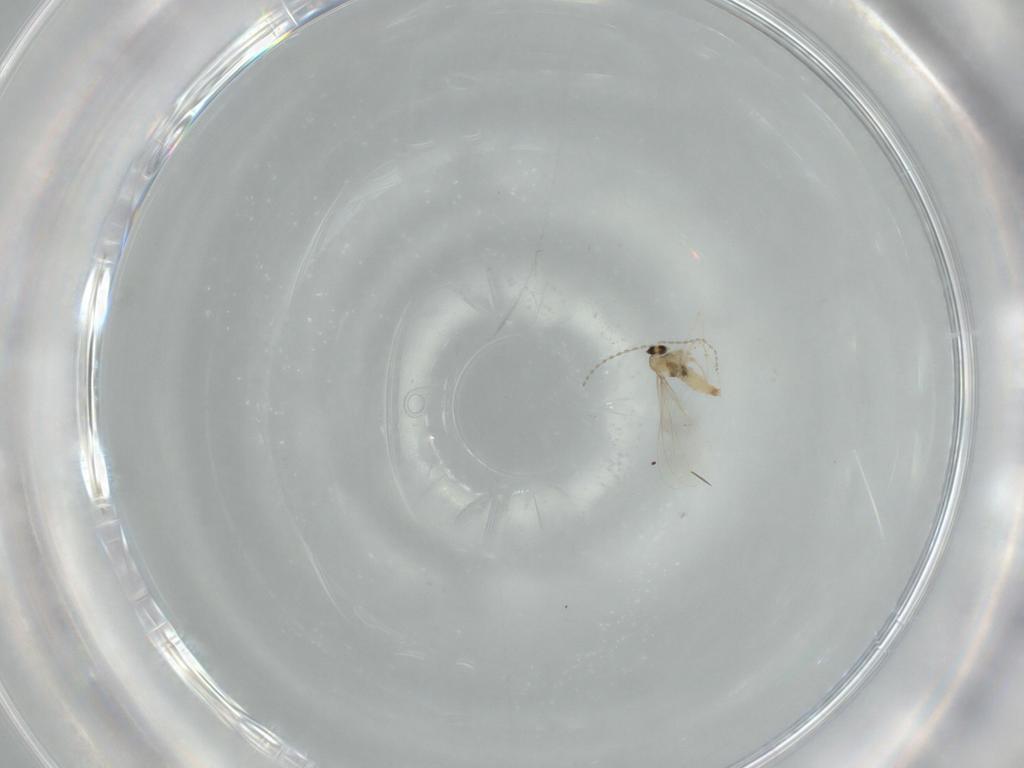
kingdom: Animalia
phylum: Arthropoda
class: Insecta
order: Diptera
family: Cecidomyiidae
